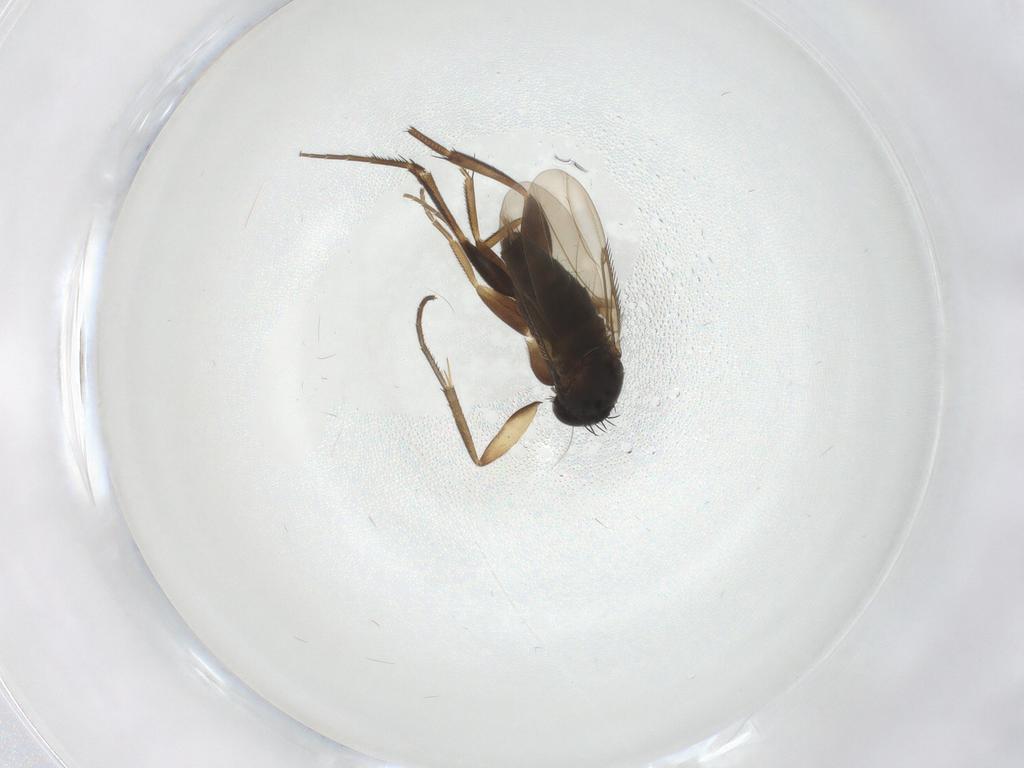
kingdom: Animalia
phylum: Arthropoda
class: Insecta
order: Diptera
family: Phoridae
